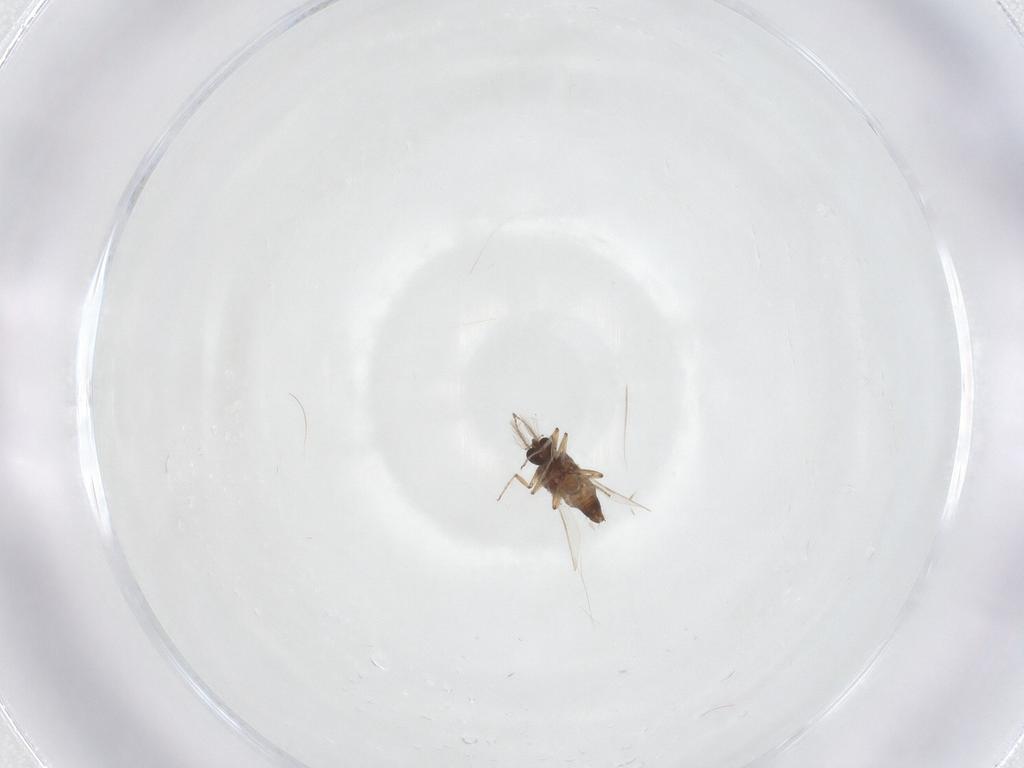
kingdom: Animalia
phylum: Arthropoda
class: Insecta
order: Diptera
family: Ceratopogonidae
